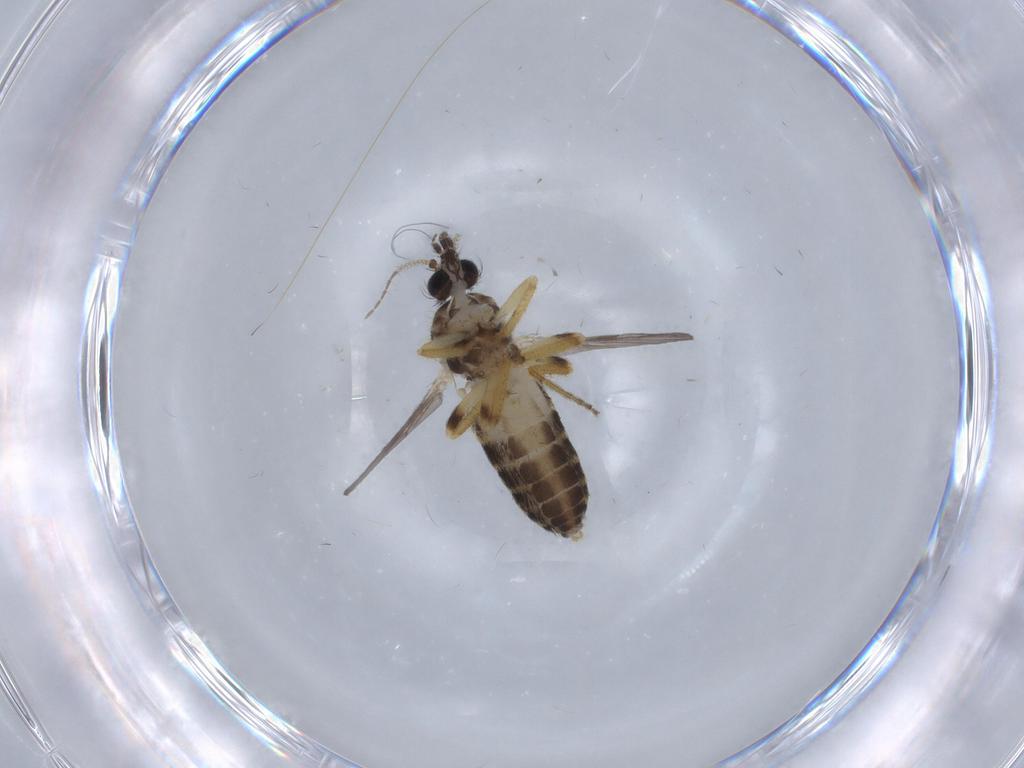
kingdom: Animalia
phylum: Arthropoda
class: Insecta
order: Diptera
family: Ceratopogonidae
